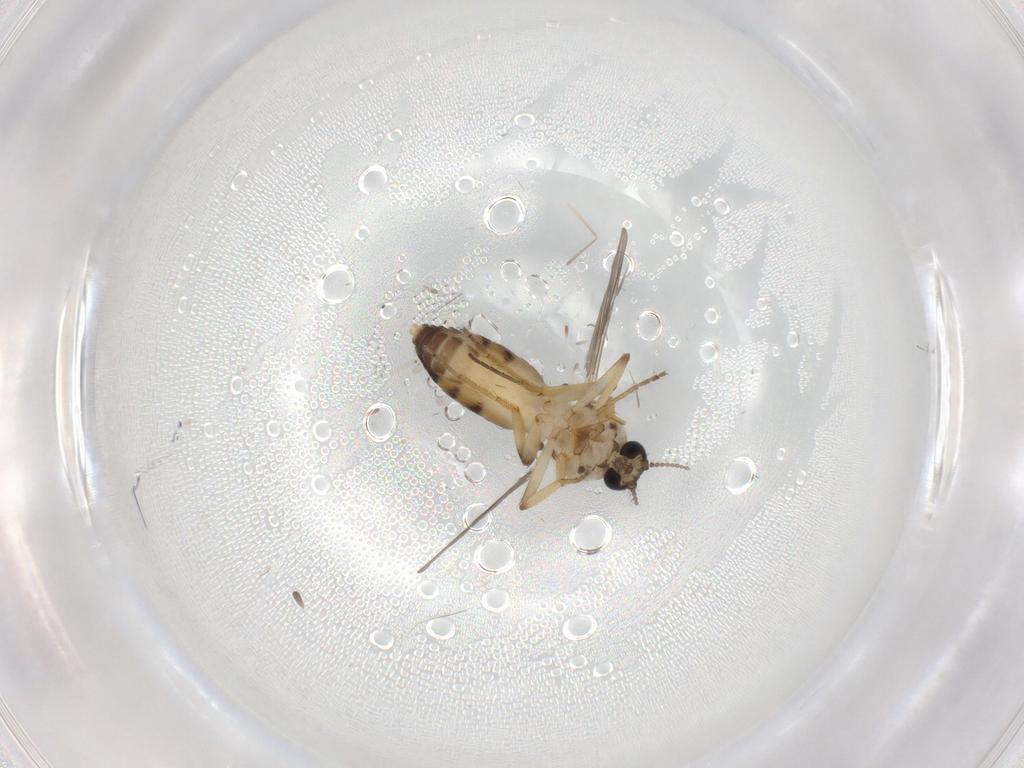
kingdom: Animalia
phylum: Arthropoda
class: Insecta
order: Diptera
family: Ceratopogonidae
